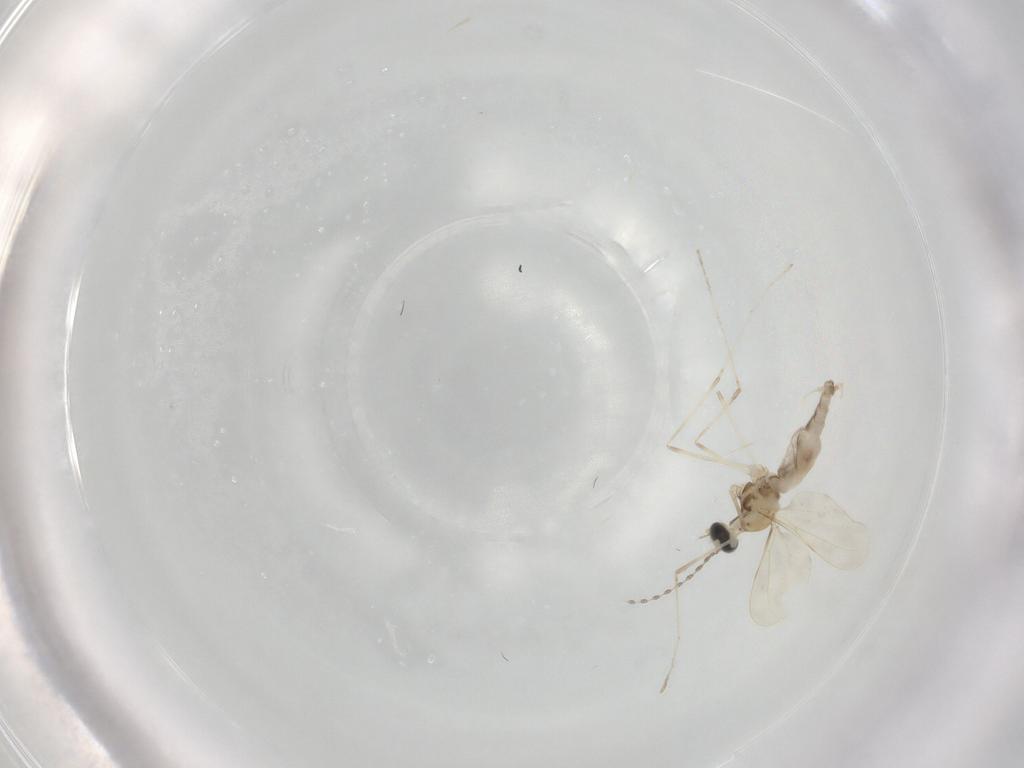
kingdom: Animalia
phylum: Arthropoda
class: Insecta
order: Diptera
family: Cecidomyiidae
